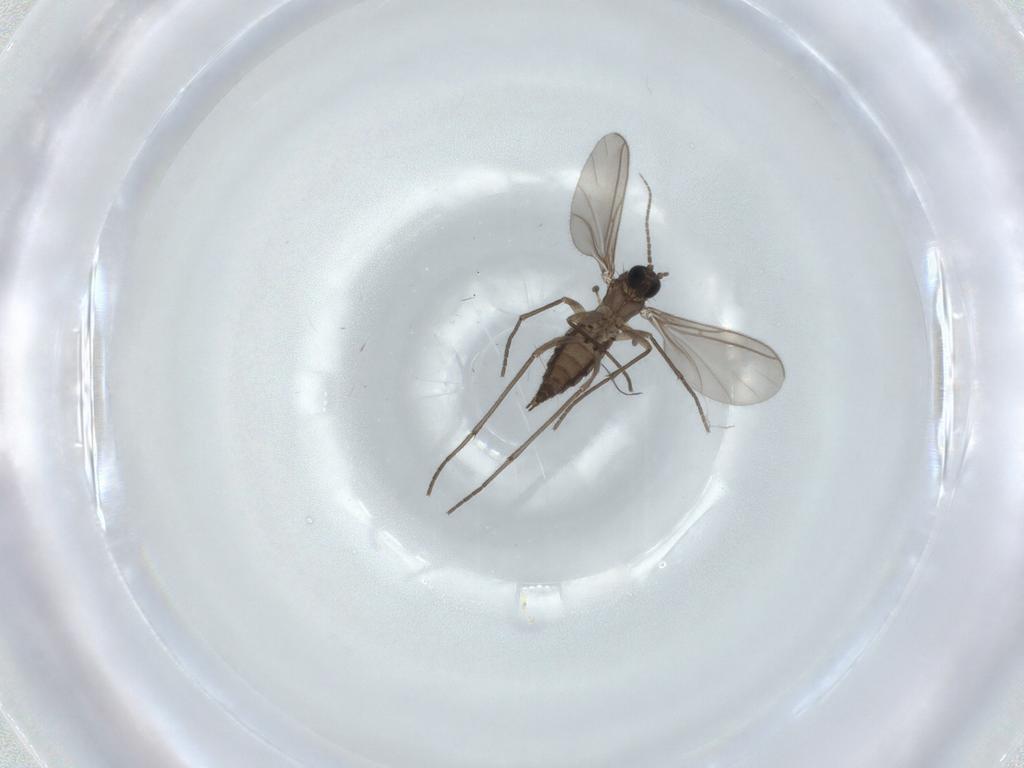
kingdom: Animalia
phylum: Arthropoda
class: Insecta
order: Diptera
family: Sciaridae
